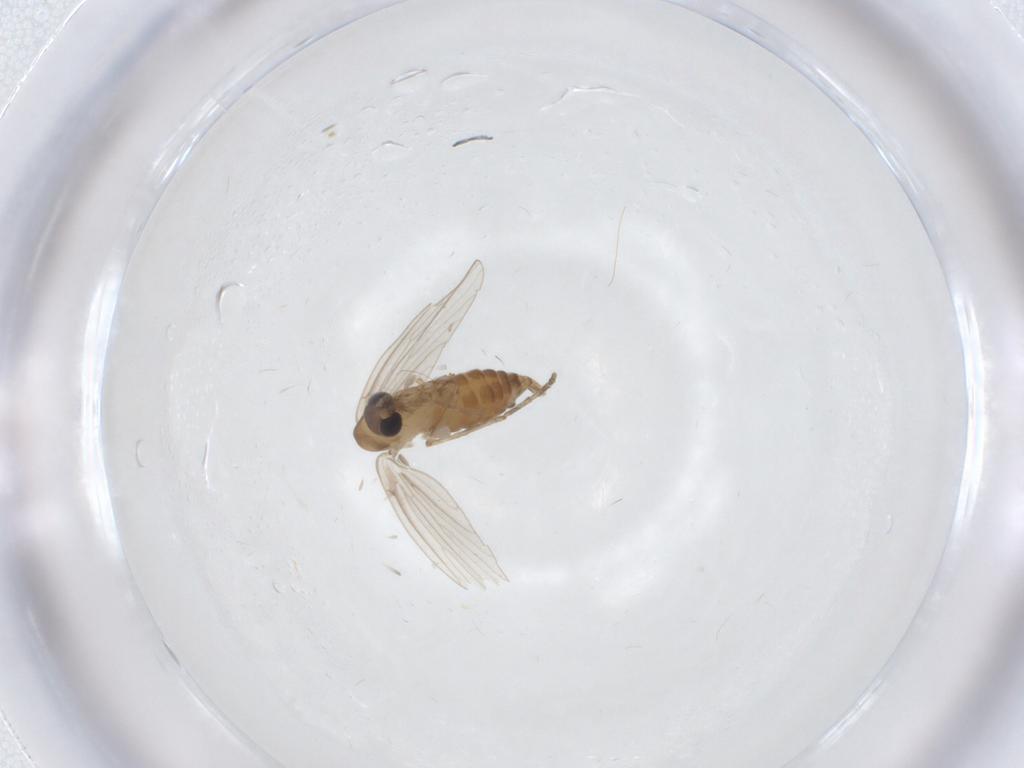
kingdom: Animalia
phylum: Arthropoda
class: Insecta
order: Diptera
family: Psychodidae
